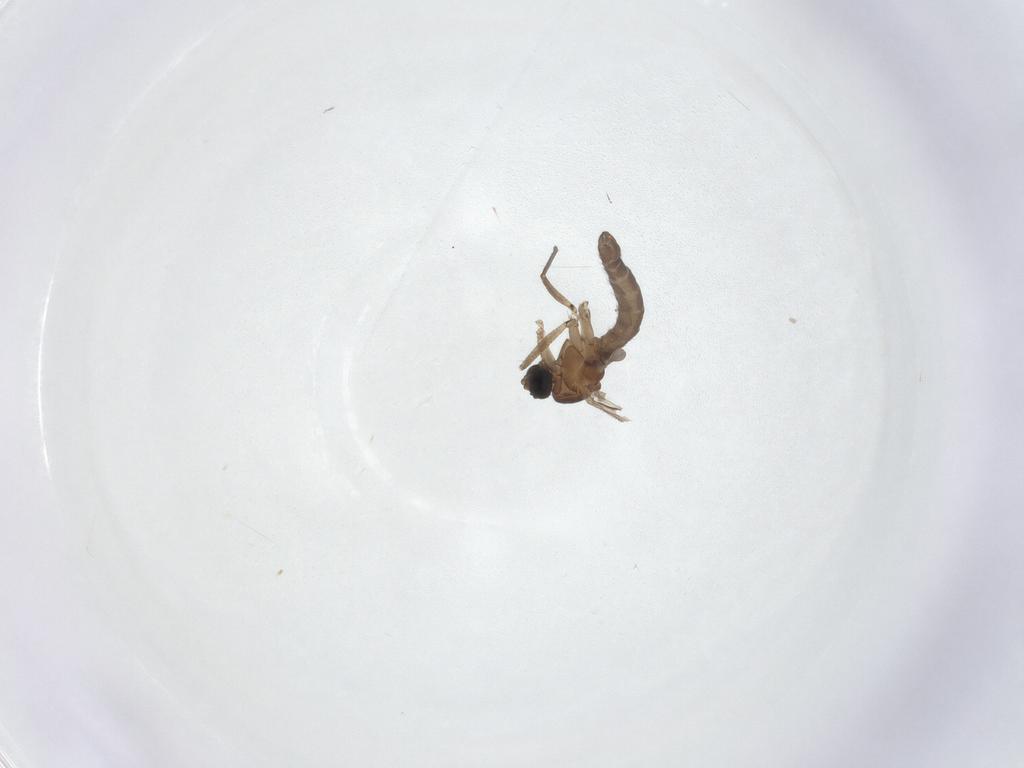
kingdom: Animalia
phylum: Arthropoda
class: Insecta
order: Diptera
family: Sciaridae
